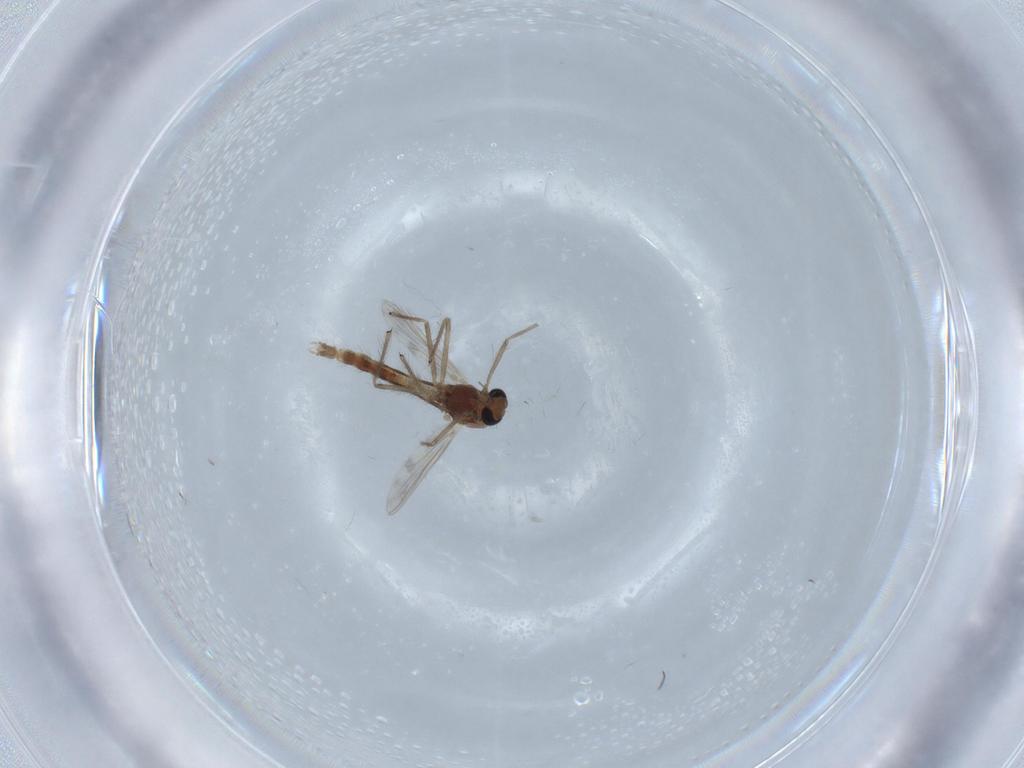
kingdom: Animalia
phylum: Arthropoda
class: Insecta
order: Diptera
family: Chironomidae
